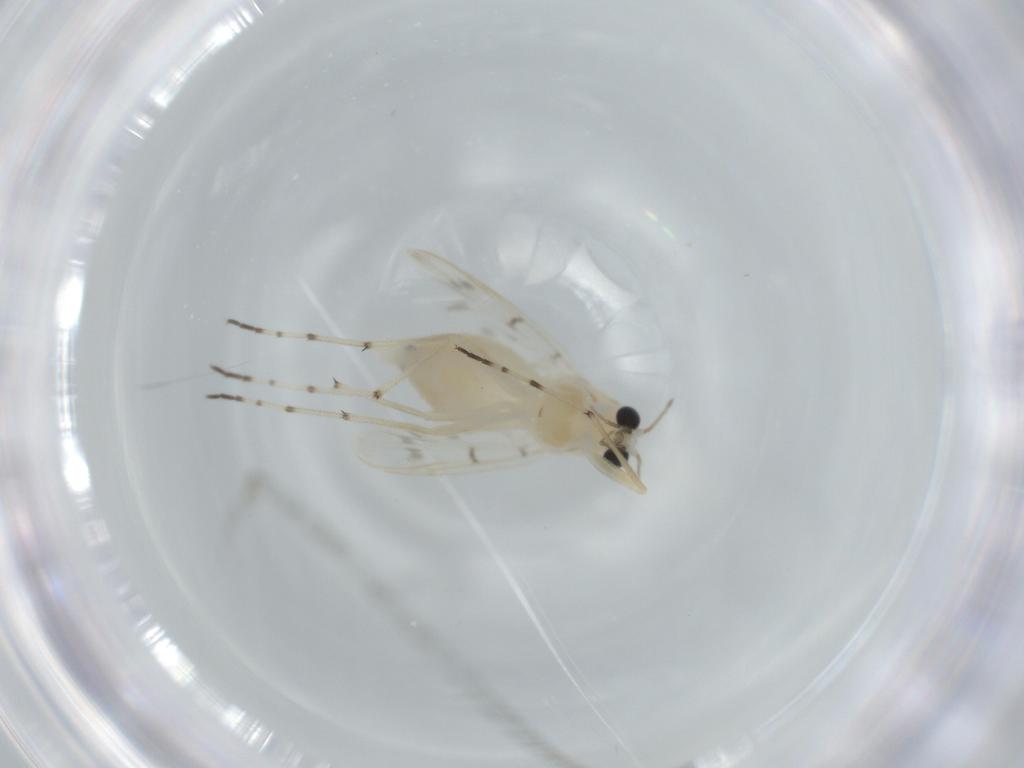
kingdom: Animalia
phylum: Arthropoda
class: Insecta
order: Diptera
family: Chironomidae
